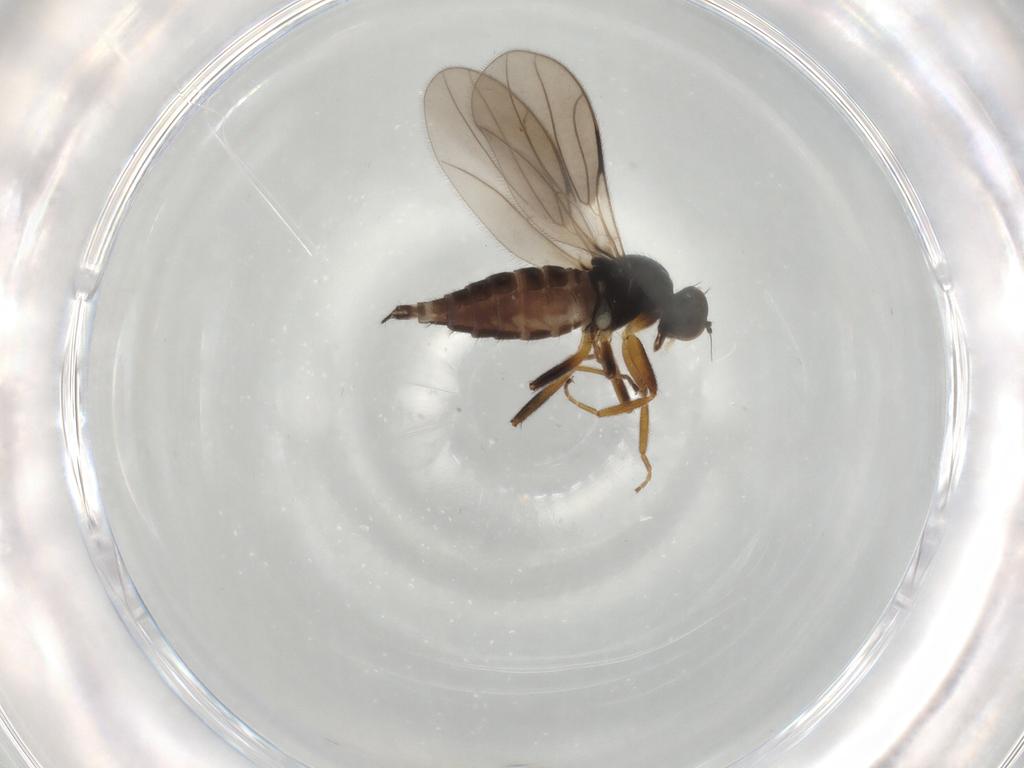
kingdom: Animalia
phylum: Arthropoda
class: Insecta
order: Diptera
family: Hybotidae
